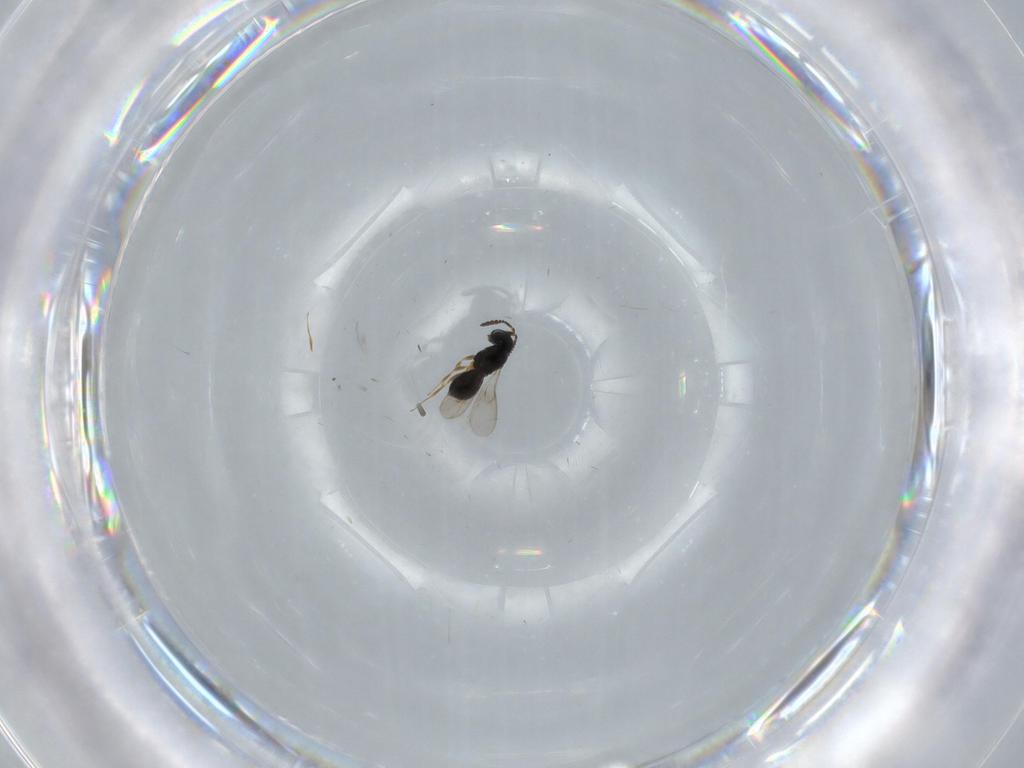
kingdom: Animalia
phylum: Arthropoda
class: Insecta
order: Hymenoptera
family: Scelionidae
